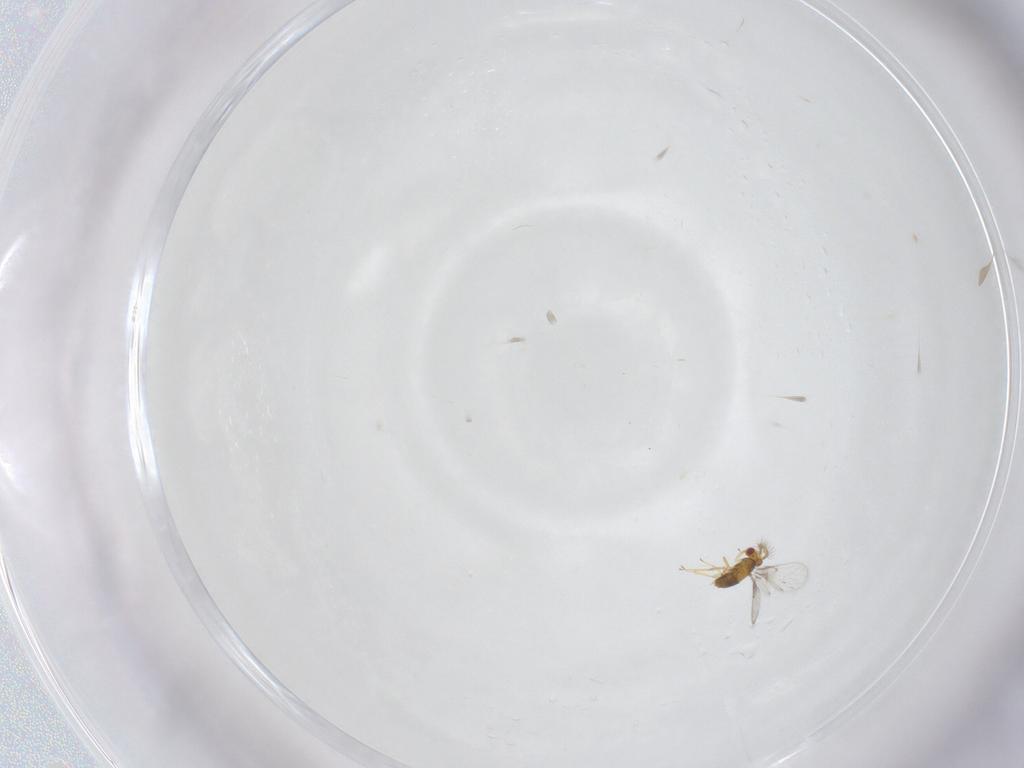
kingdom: Animalia
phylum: Arthropoda
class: Insecta
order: Hymenoptera
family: Trichogrammatidae
